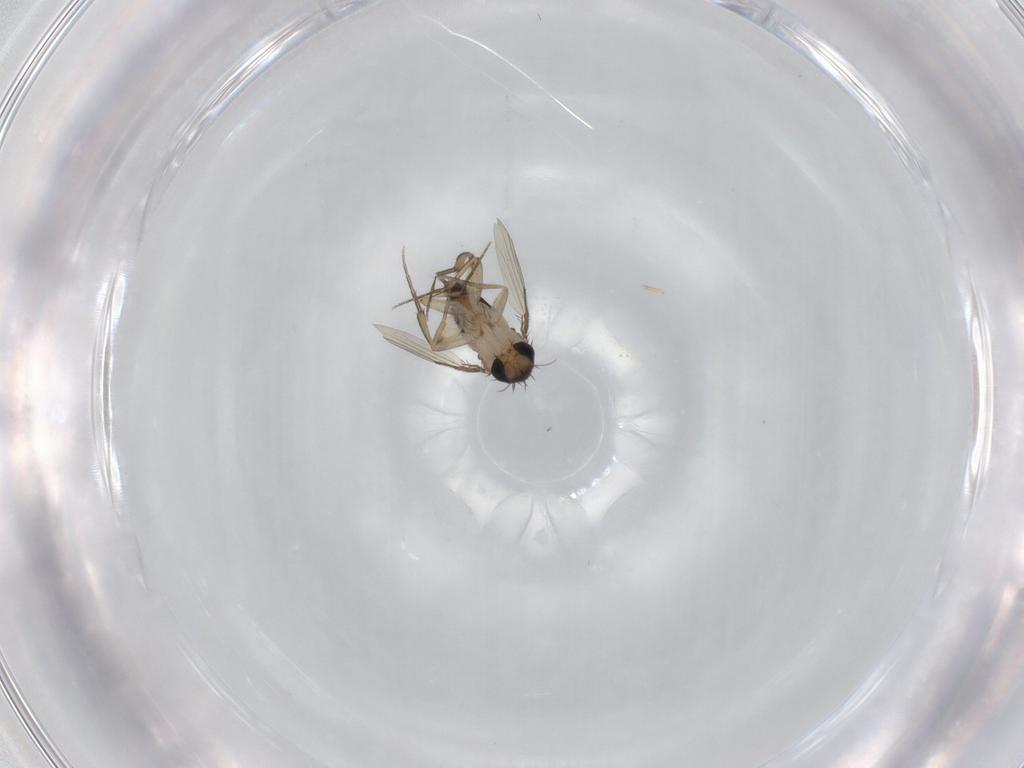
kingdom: Animalia
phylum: Arthropoda
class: Insecta
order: Diptera
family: Phoridae
